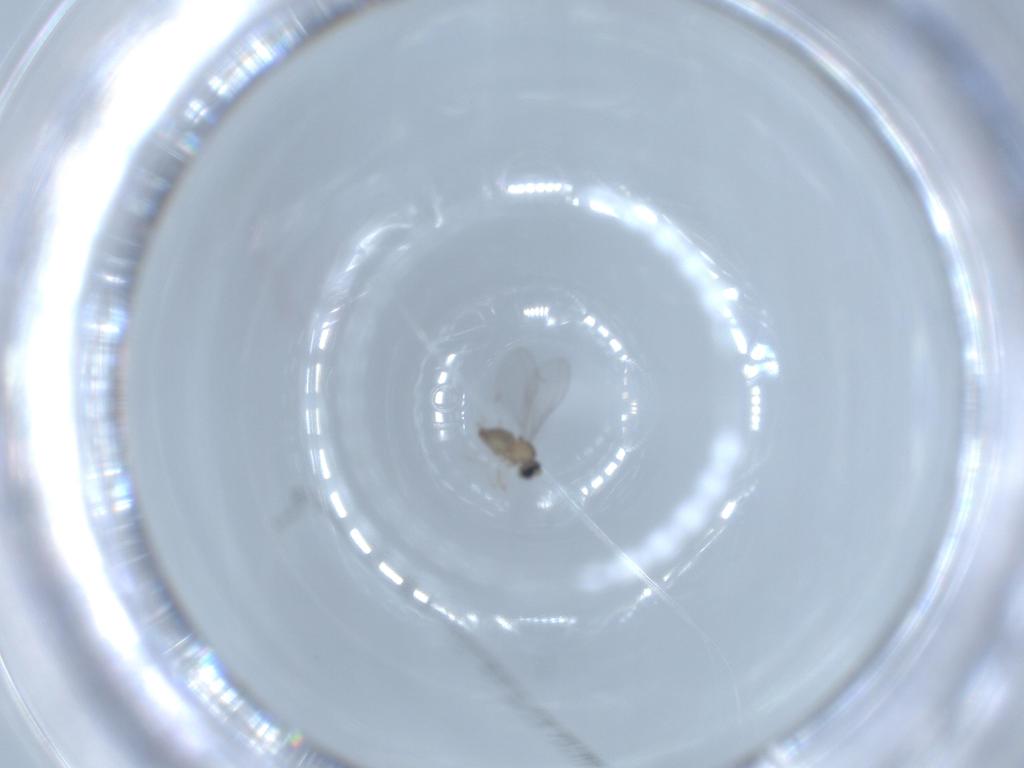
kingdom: Animalia
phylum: Arthropoda
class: Insecta
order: Diptera
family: Cecidomyiidae
